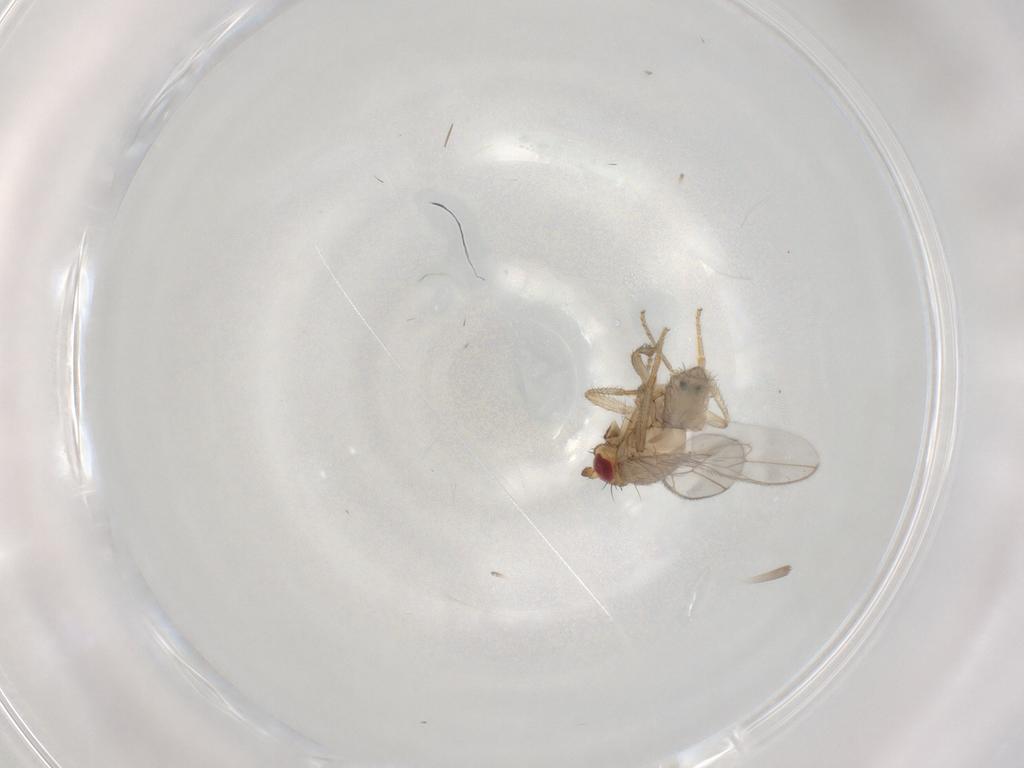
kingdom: Animalia
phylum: Arthropoda
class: Insecta
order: Diptera
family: Sphaeroceridae
